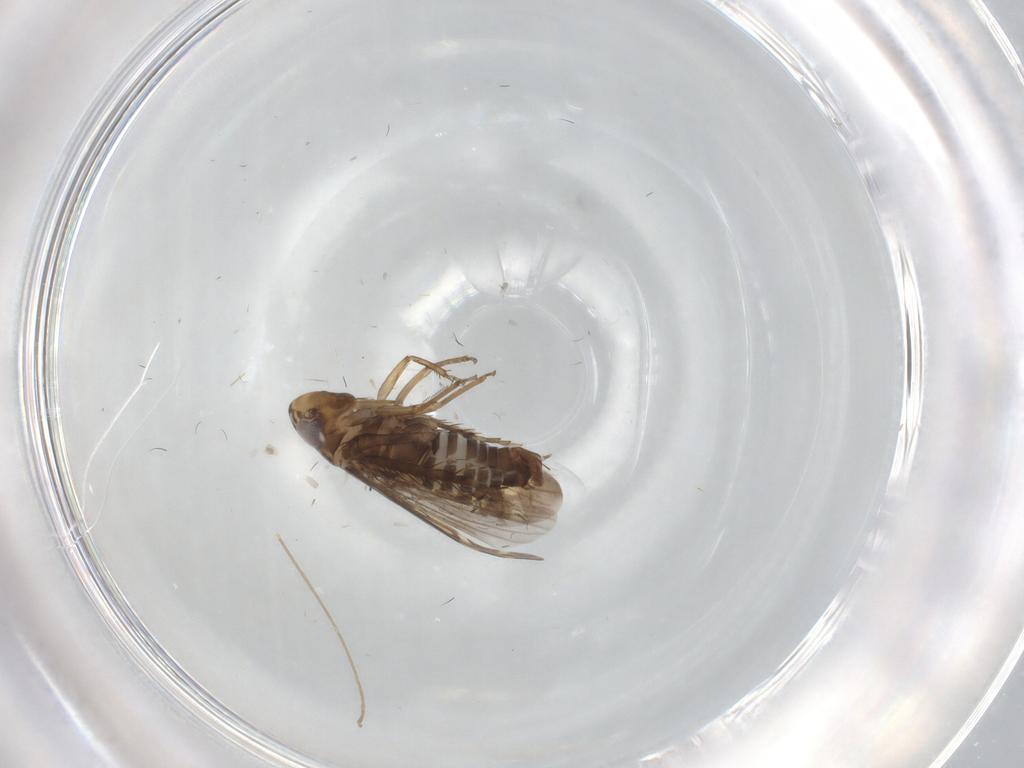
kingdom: Animalia
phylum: Arthropoda
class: Insecta
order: Hemiptera
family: Cicadellidae
